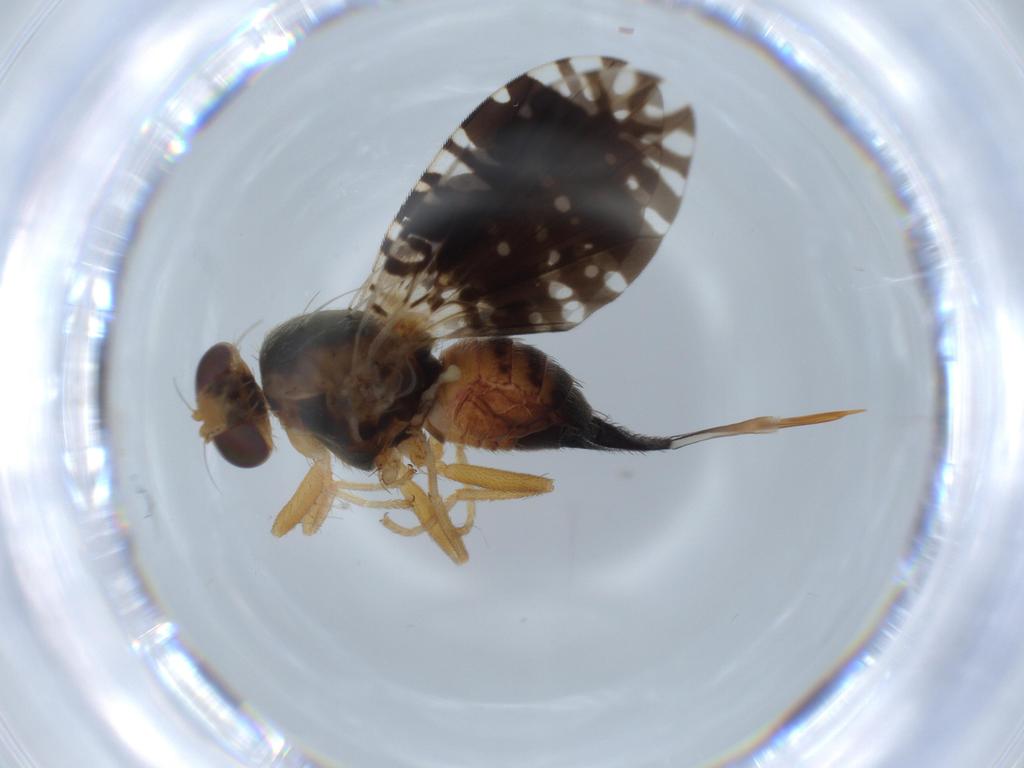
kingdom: Animalia
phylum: Arthropoda
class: Insecta
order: Diptera
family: Tephritidae
